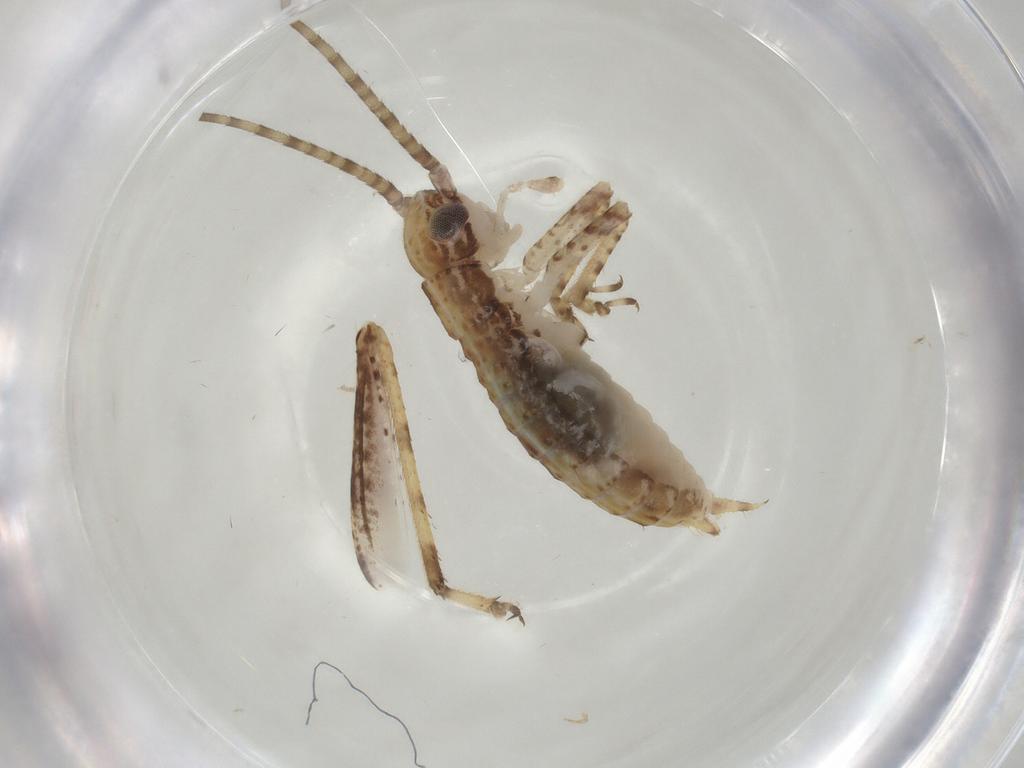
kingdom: Animalia
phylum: Arthropoda
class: Insecta
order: Orthoptera
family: Gryllidae
